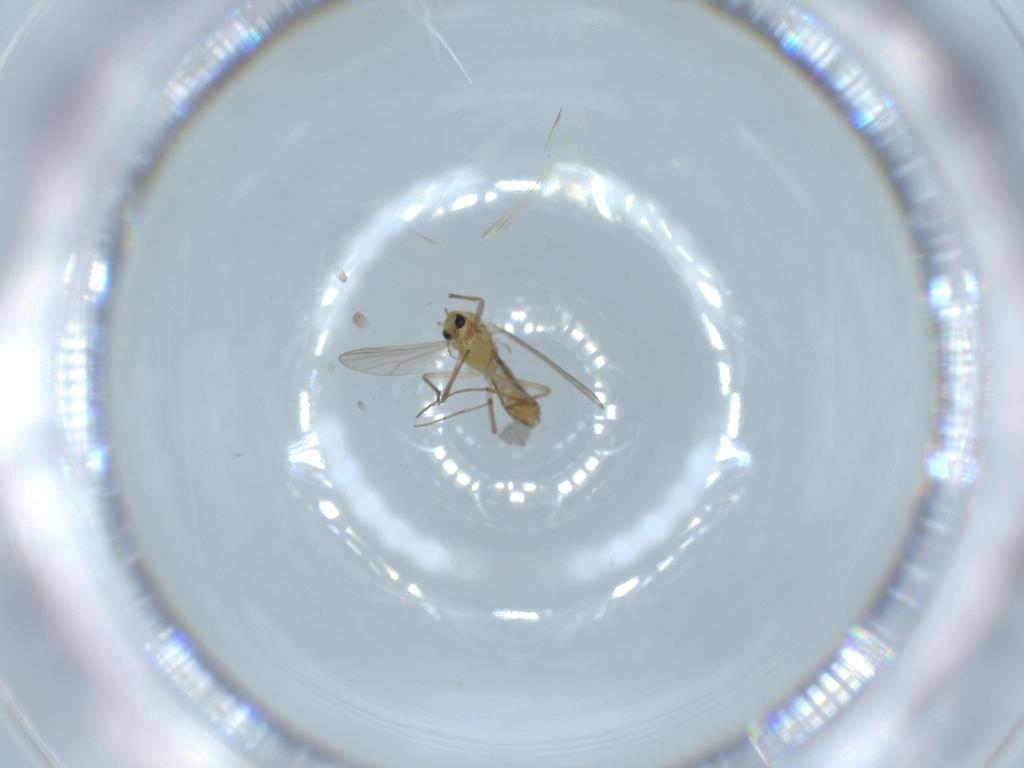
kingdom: Animalia
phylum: Arthropoda
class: Insecta
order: Diptera
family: Chironomidae
